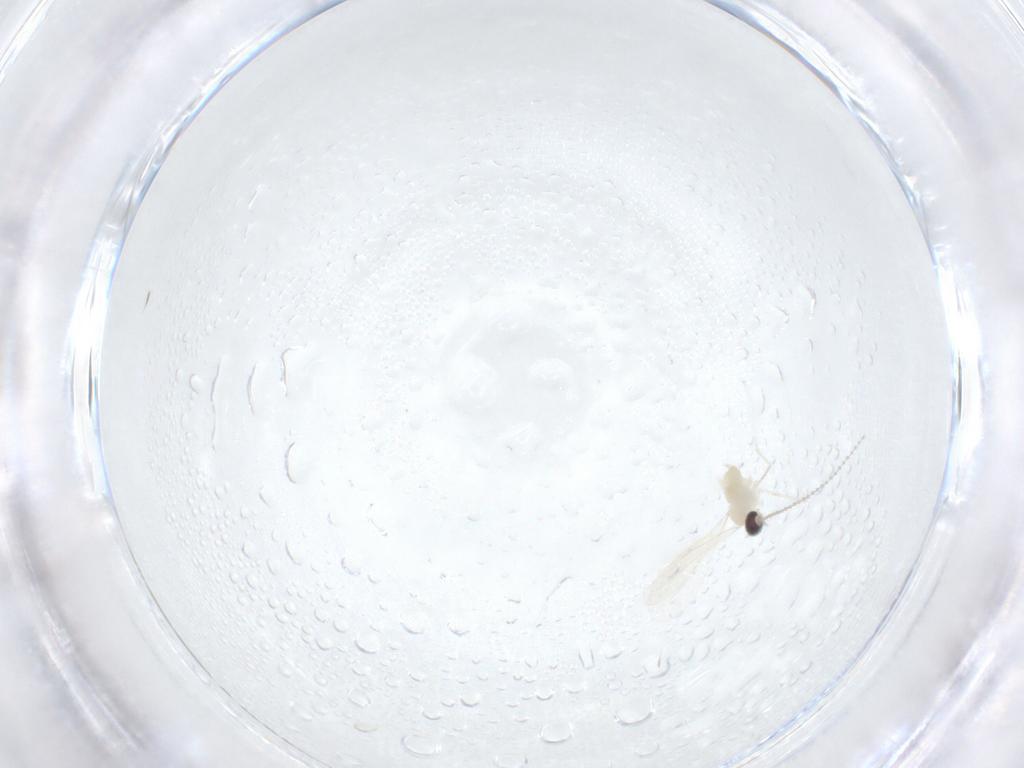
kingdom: Animalia
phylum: Arthropoda
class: Insecta
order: Diptera
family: Cecidomyiidae
